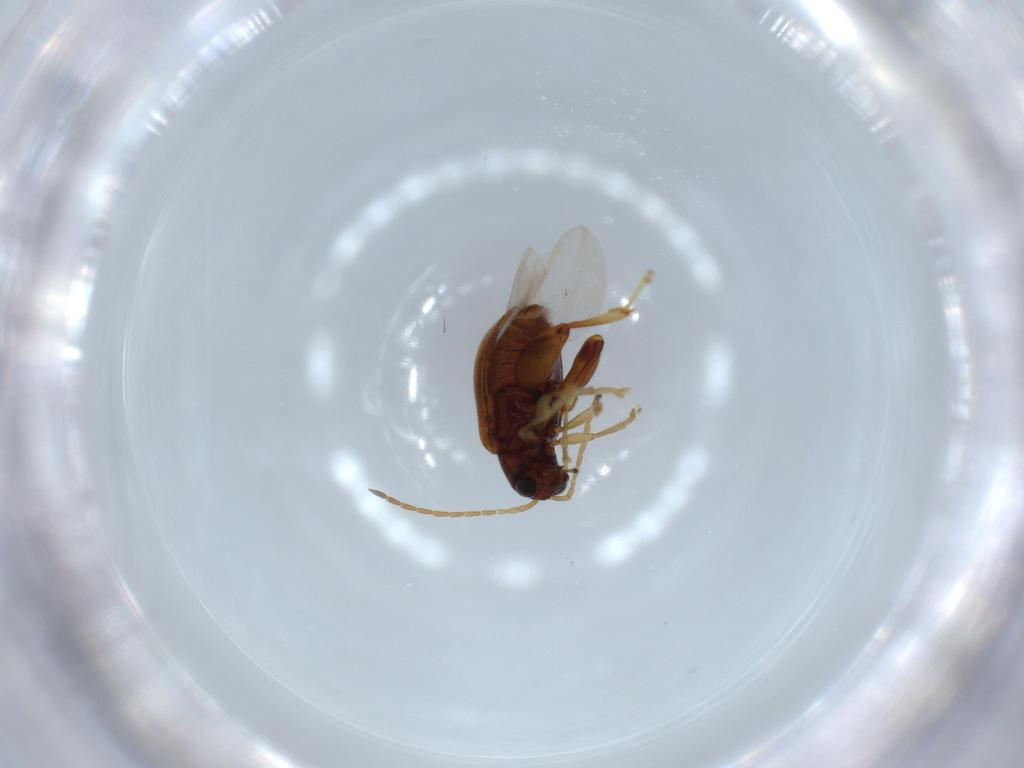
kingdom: Animalia
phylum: Arthropoda
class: Insecta
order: Coleoptera
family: Chrysomelidae
